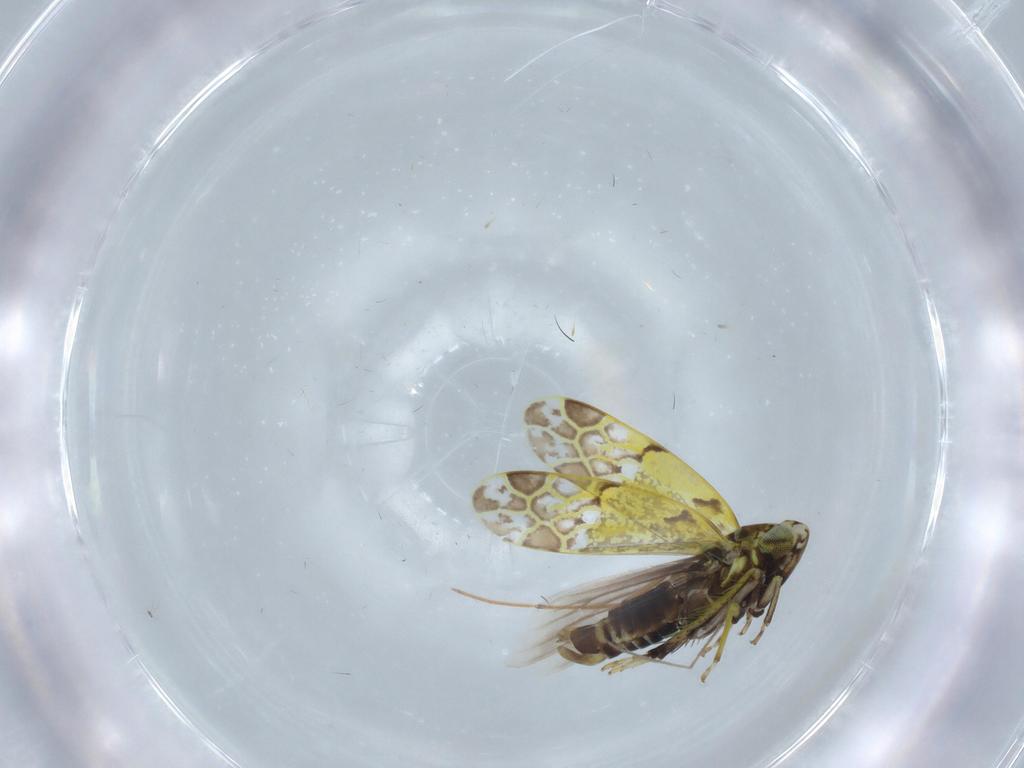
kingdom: Animalia
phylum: Arthropoda
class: Insecta
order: Hemiptera
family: Cicadellidae
